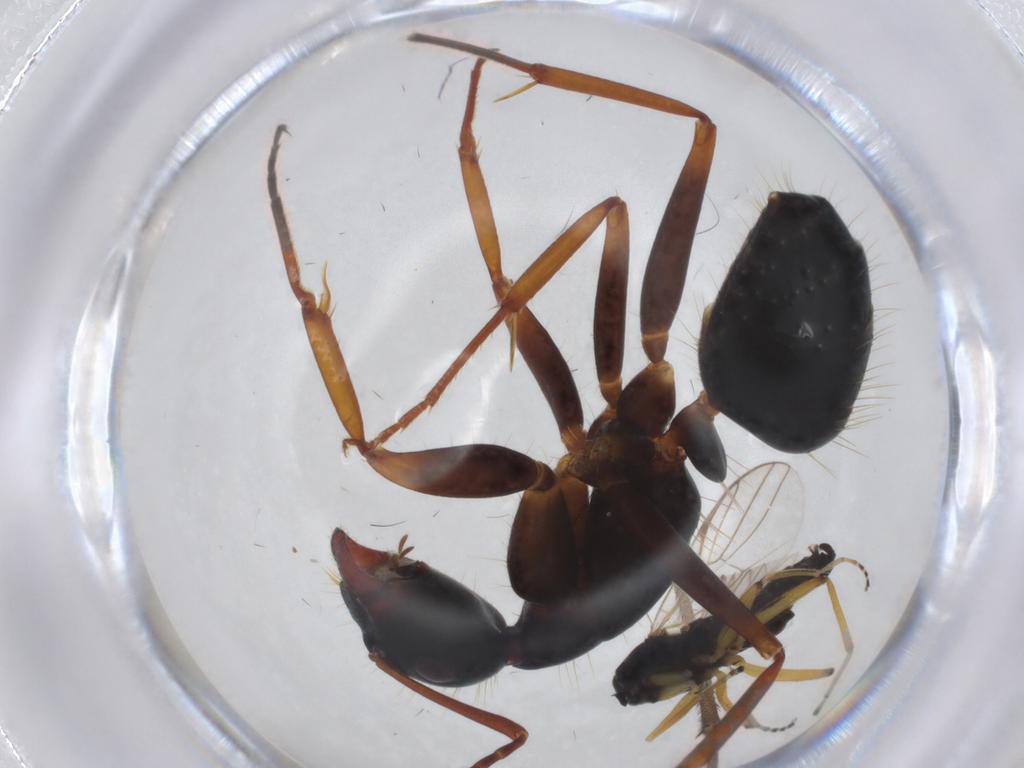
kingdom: Animalia
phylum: Arthropoda
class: Insecta
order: Hymenoptera
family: Formicidae
